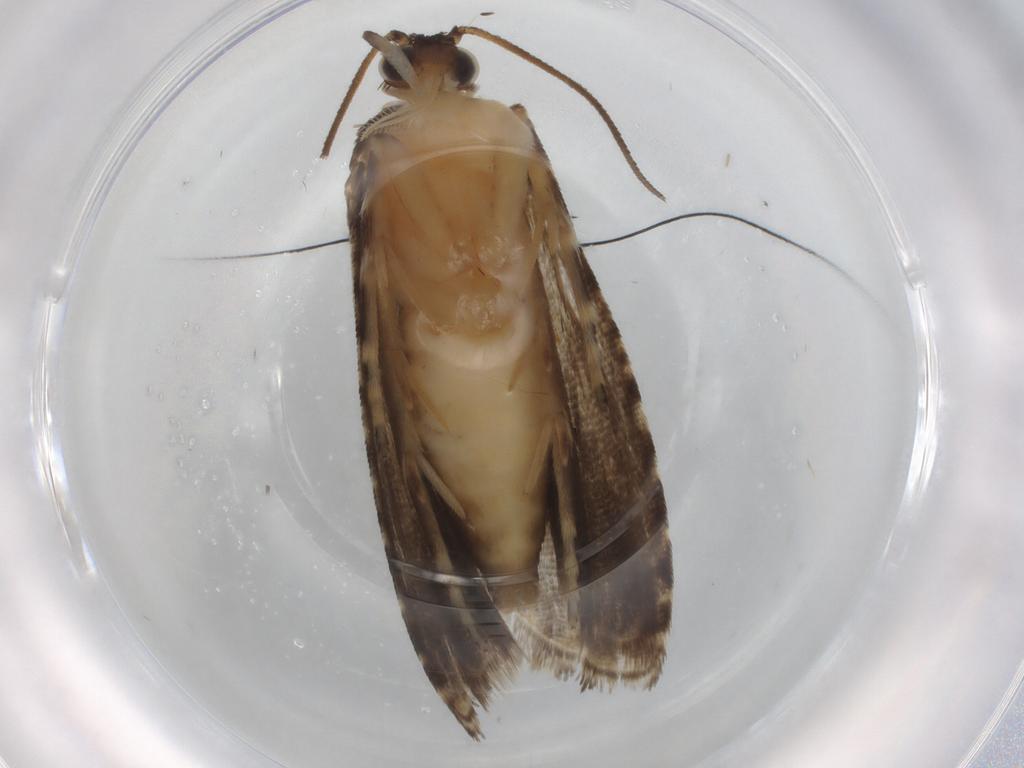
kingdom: Animalia
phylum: Arthropoda
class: Insecta
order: Lepidoptera
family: Tortricidae
